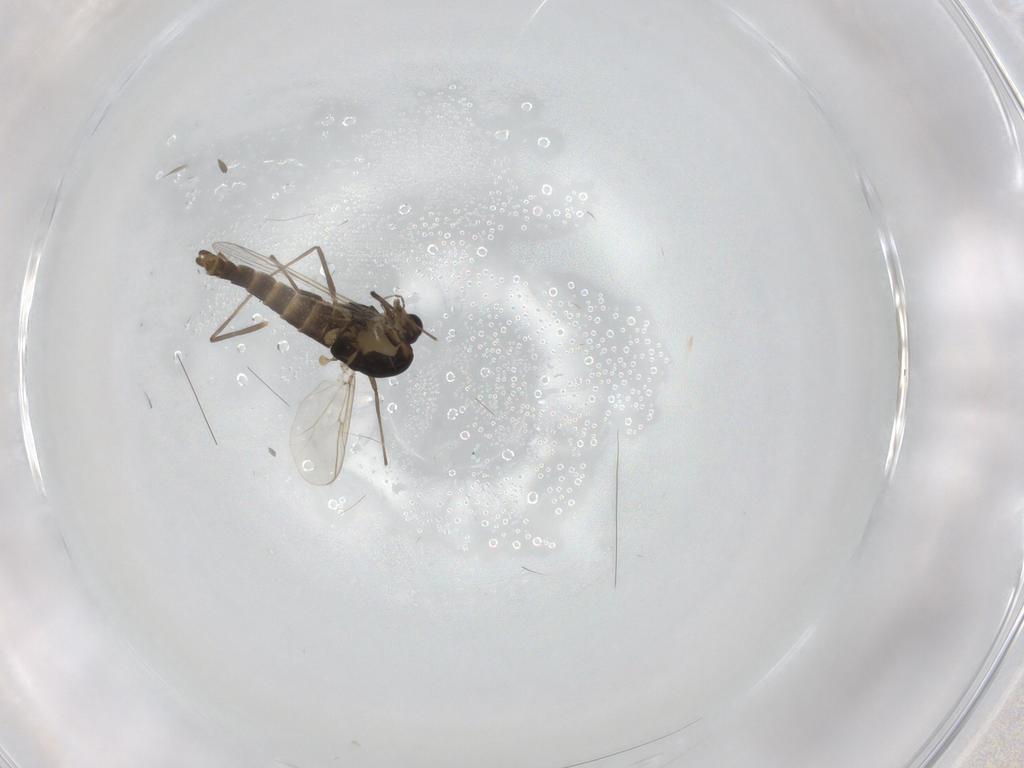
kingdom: Animalia
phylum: Arthropoda
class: Insecta
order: Diptera
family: Chironomidae
